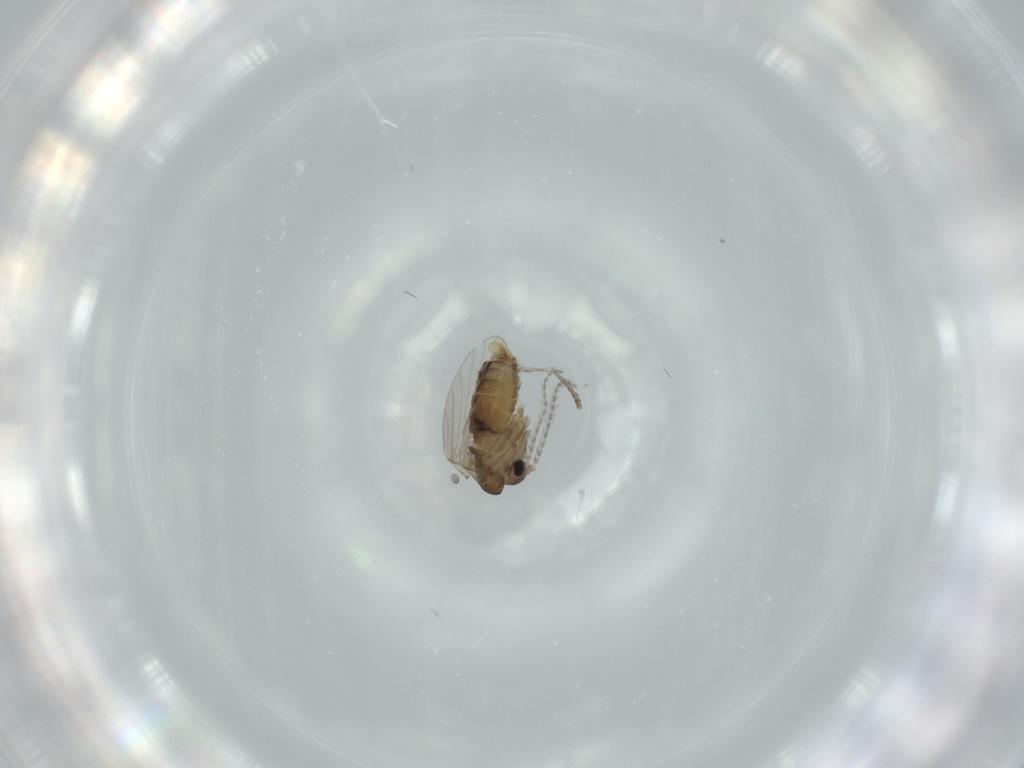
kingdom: Animalia
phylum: Arthropoda
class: Insecta
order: Diptera
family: Psychodidae
